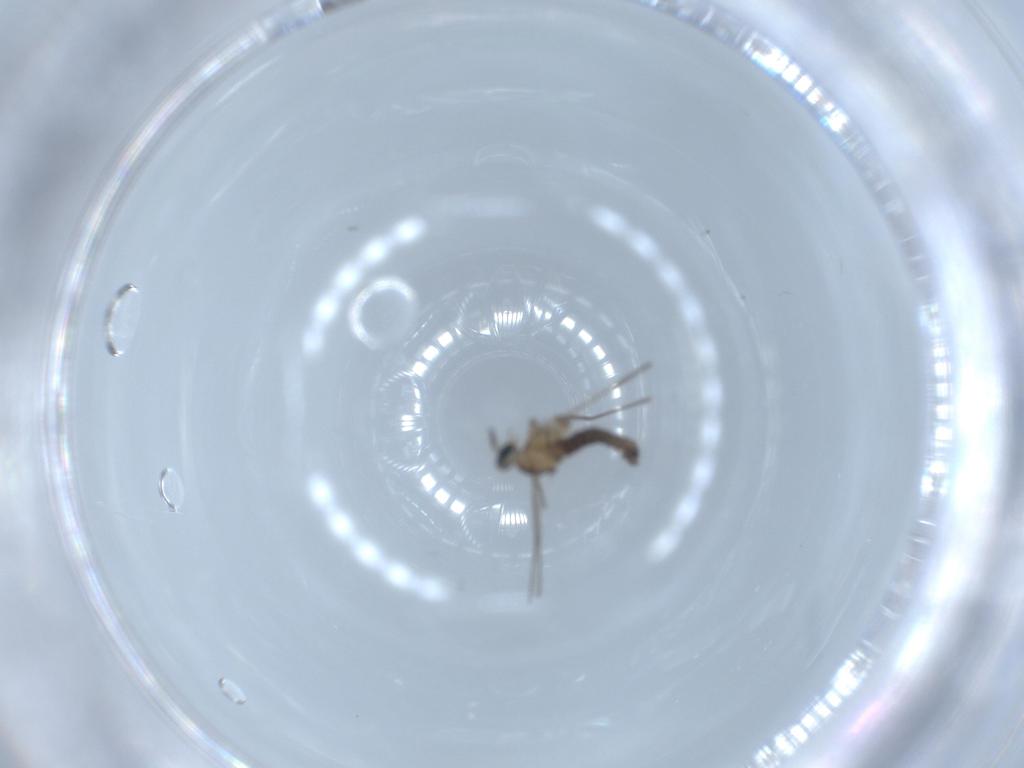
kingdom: Animalia
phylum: Arthropoda
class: Insecta
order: Diptera
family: Cecidomyiidae
